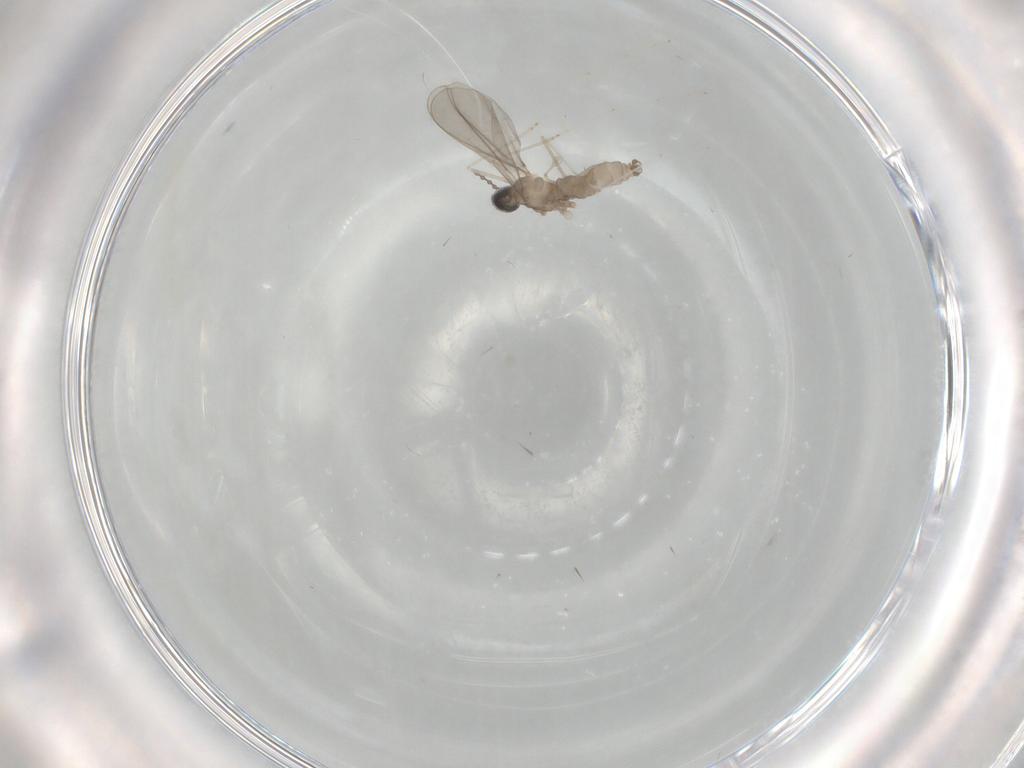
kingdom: Animalia
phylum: Arthropoda
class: Insecta
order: Diptera
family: Cecidomyiidae
